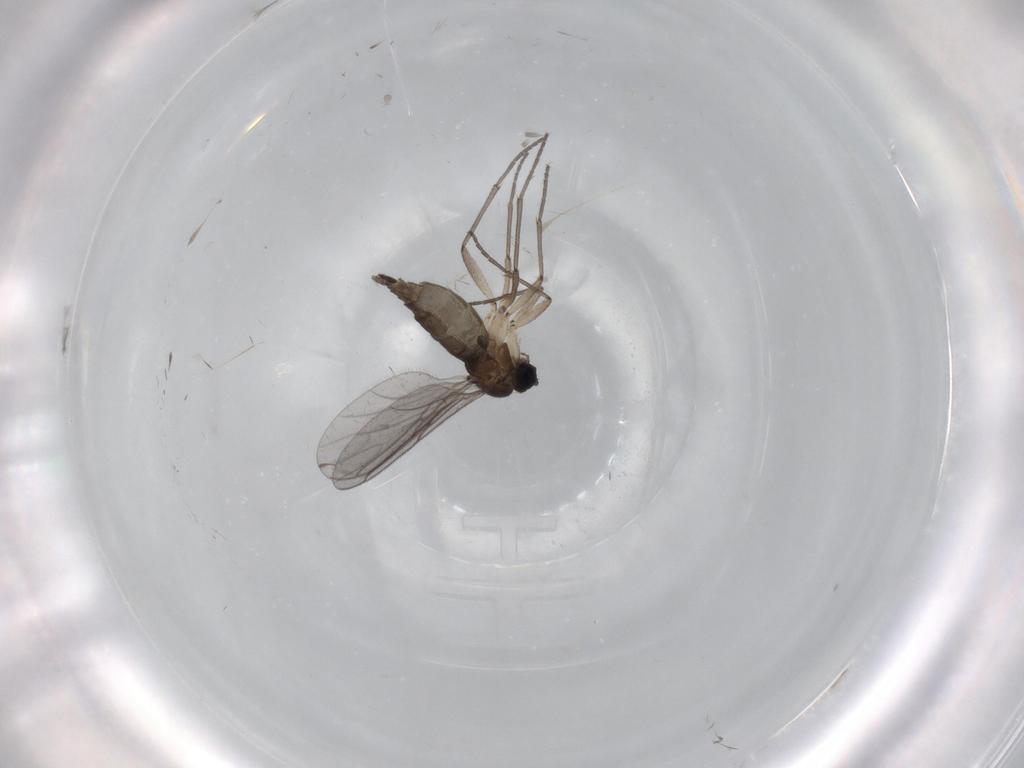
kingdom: Animalia
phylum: Arthropoda
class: Insecta
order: Diptera
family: Sciaridae
